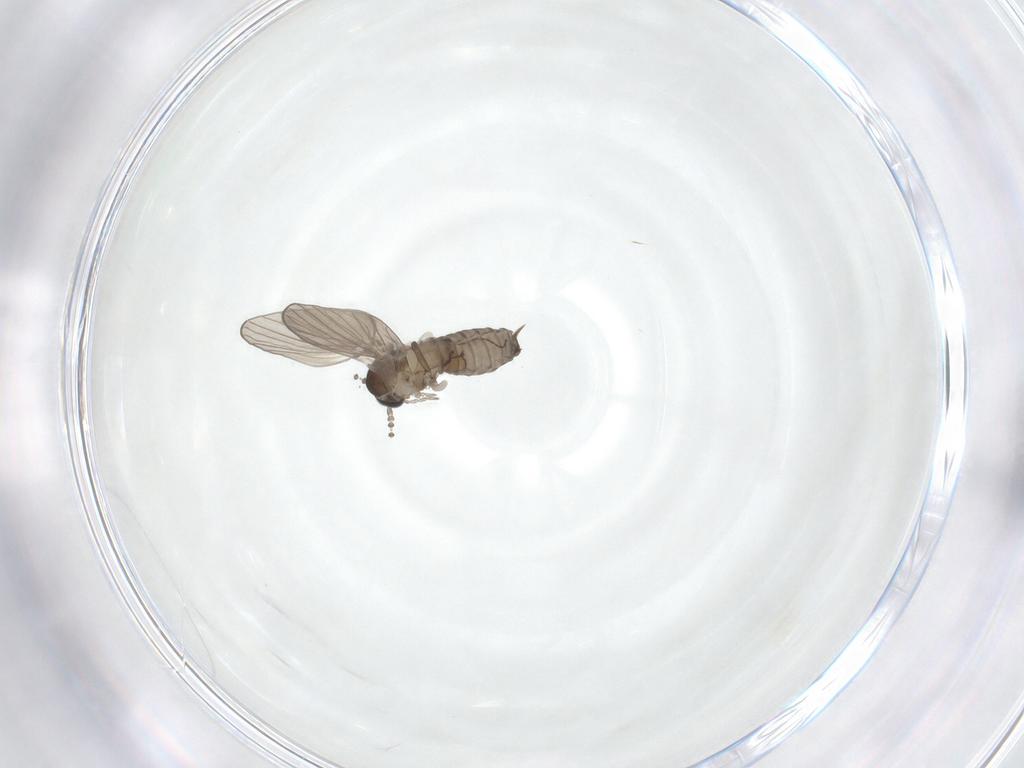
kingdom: Animalia
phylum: Arthropoda
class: Insecta
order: Diptera
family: Psychodidae
